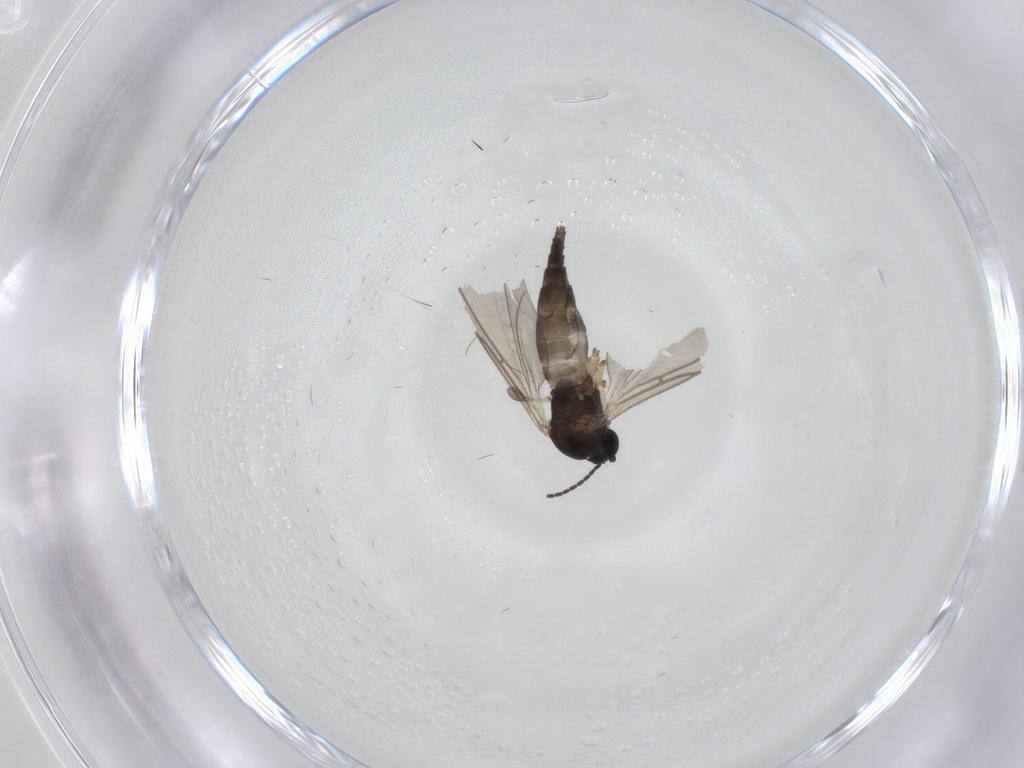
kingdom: Animalia
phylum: Arthropoda
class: Insecta
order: Diptera
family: Sciaridae
